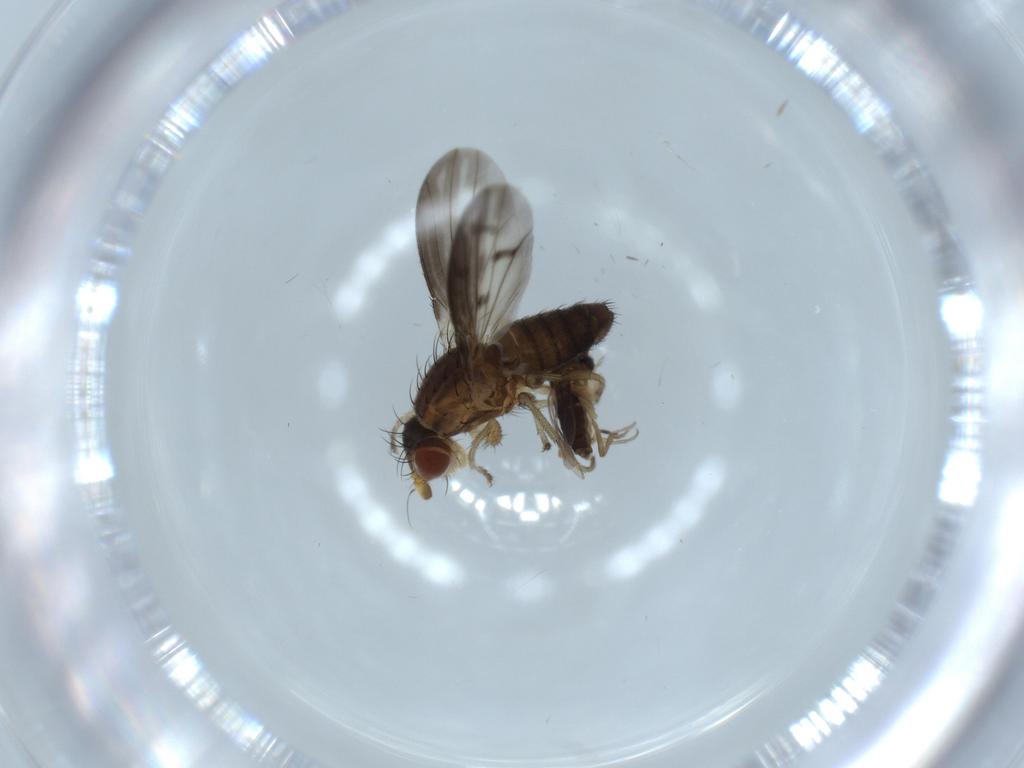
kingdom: Animalia
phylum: Arthropoda
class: Insecta
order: Diptera
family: Heleomyzidae
